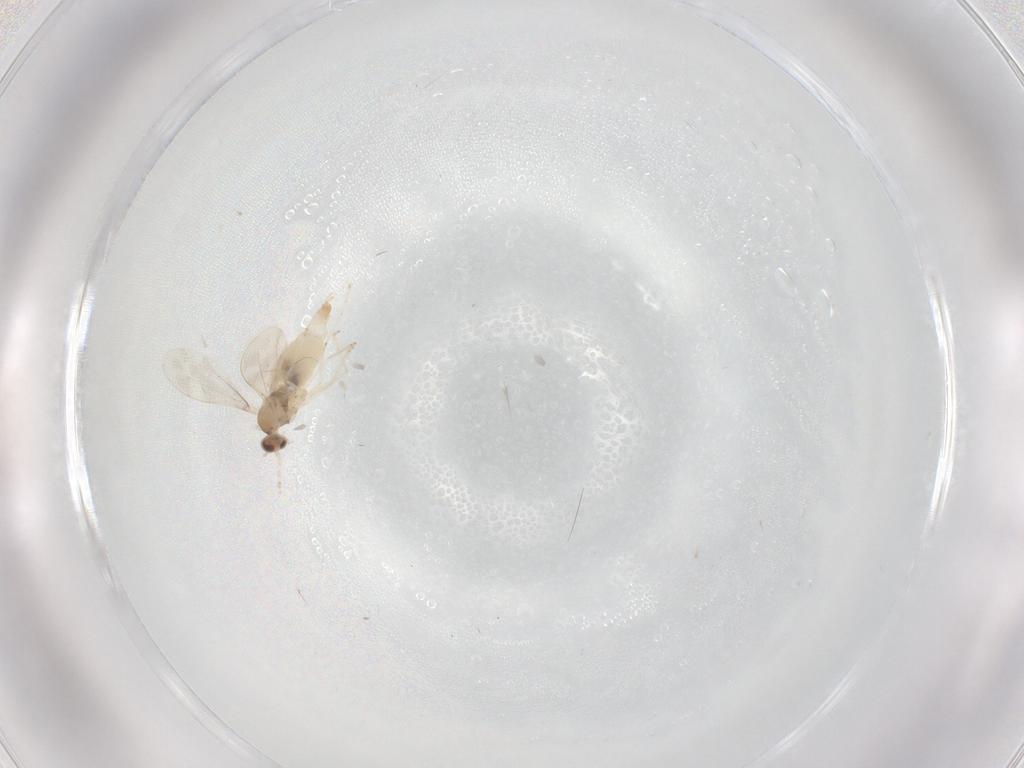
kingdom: Animalia
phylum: Arthropoda
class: Insecta
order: Diptera
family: Cecidomyiidae
